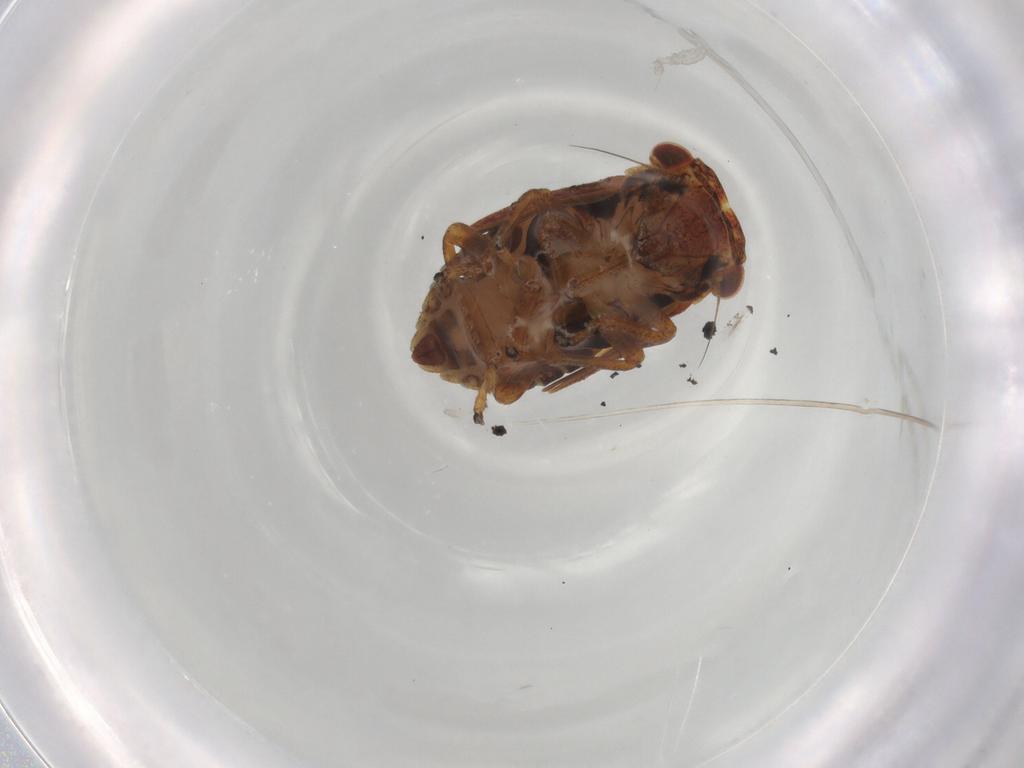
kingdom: Animalia
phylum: Arthropoda
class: Insecta
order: Hemiptera
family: Cicadellidae
